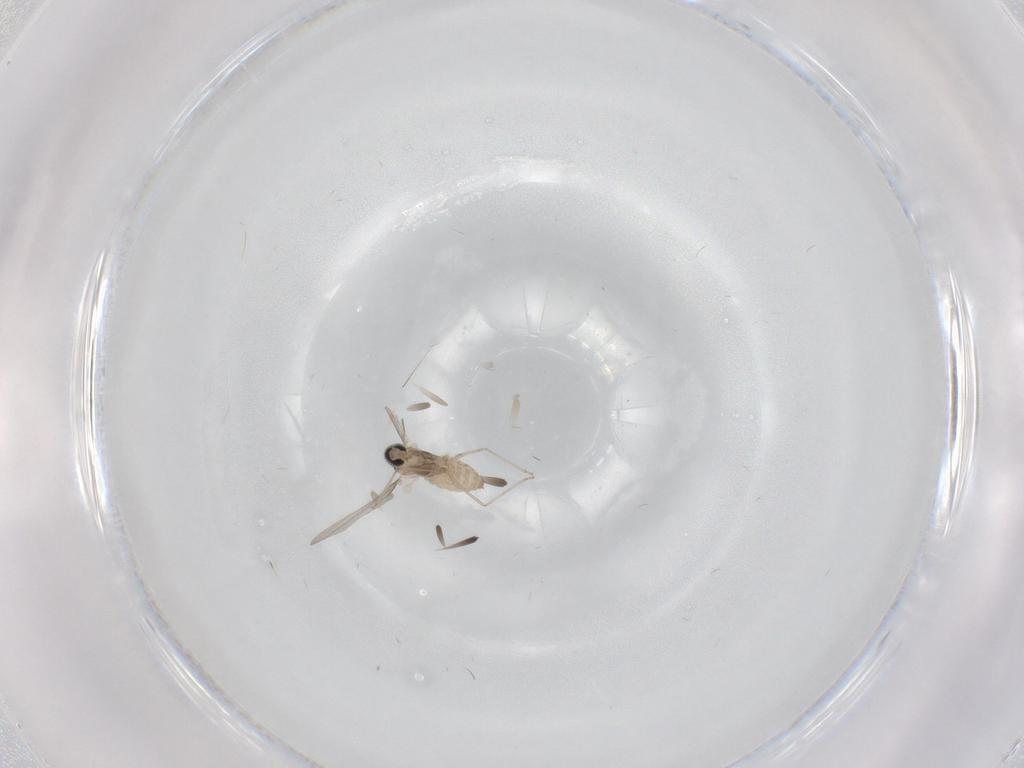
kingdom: Animalia
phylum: Arthropoda
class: Insecta
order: Diptera
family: Cecidomyiidae
